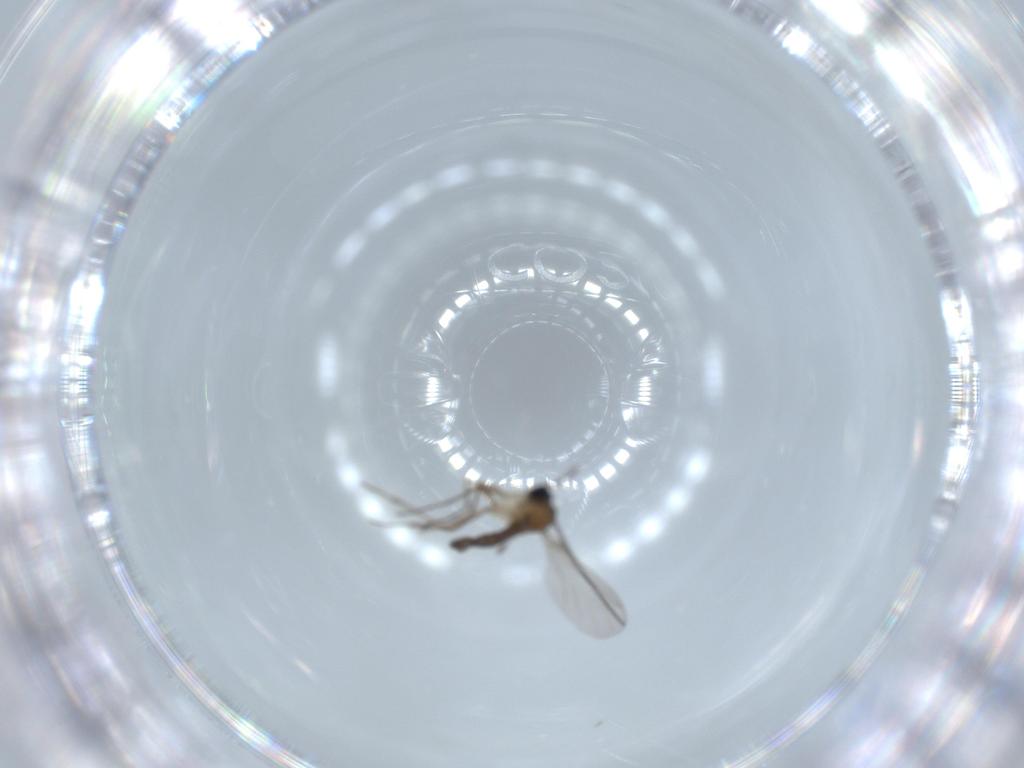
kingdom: Animalia
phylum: Arthropoda
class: Insecta
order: Diptera
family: Sciaridae
